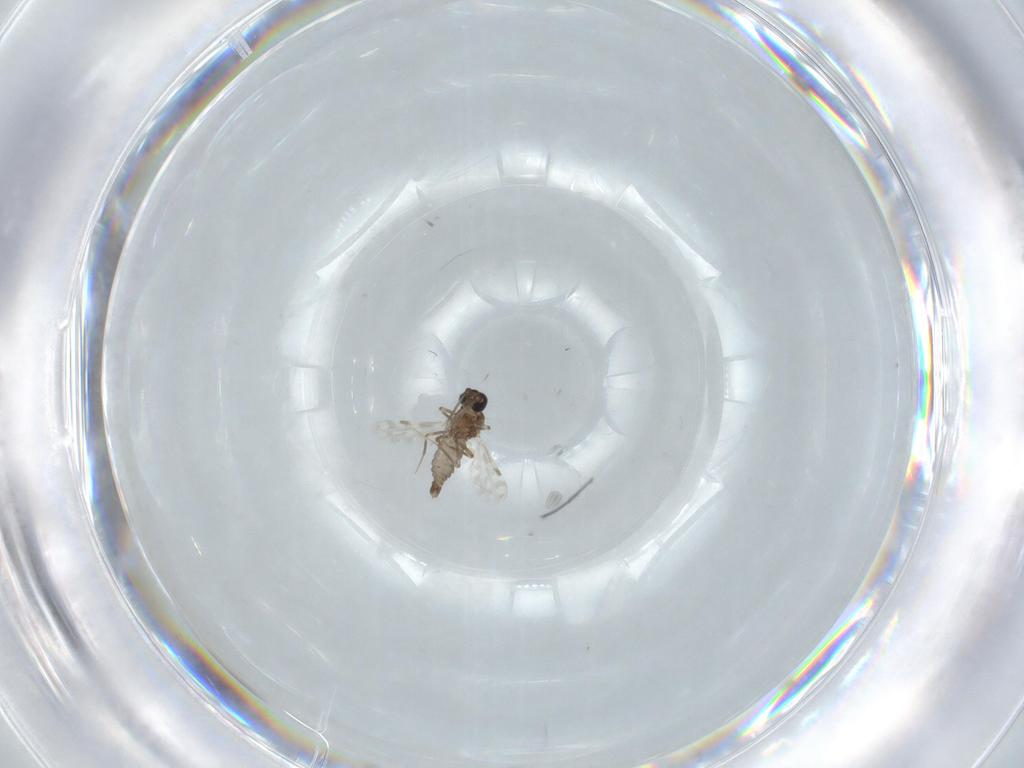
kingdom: Animalia
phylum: Arthropoda
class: Insecta
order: Diptera
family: Ceratopogonidae
